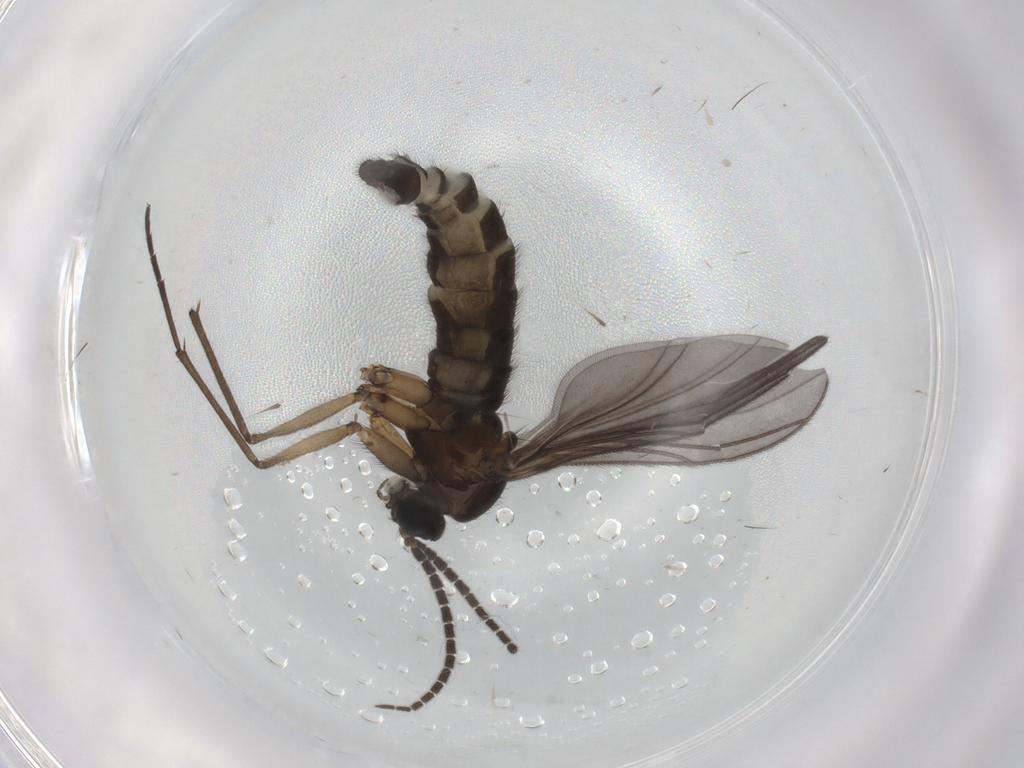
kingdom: Animalia
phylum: Arthropoda
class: Insecta
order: Diptera
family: Sciaridae
